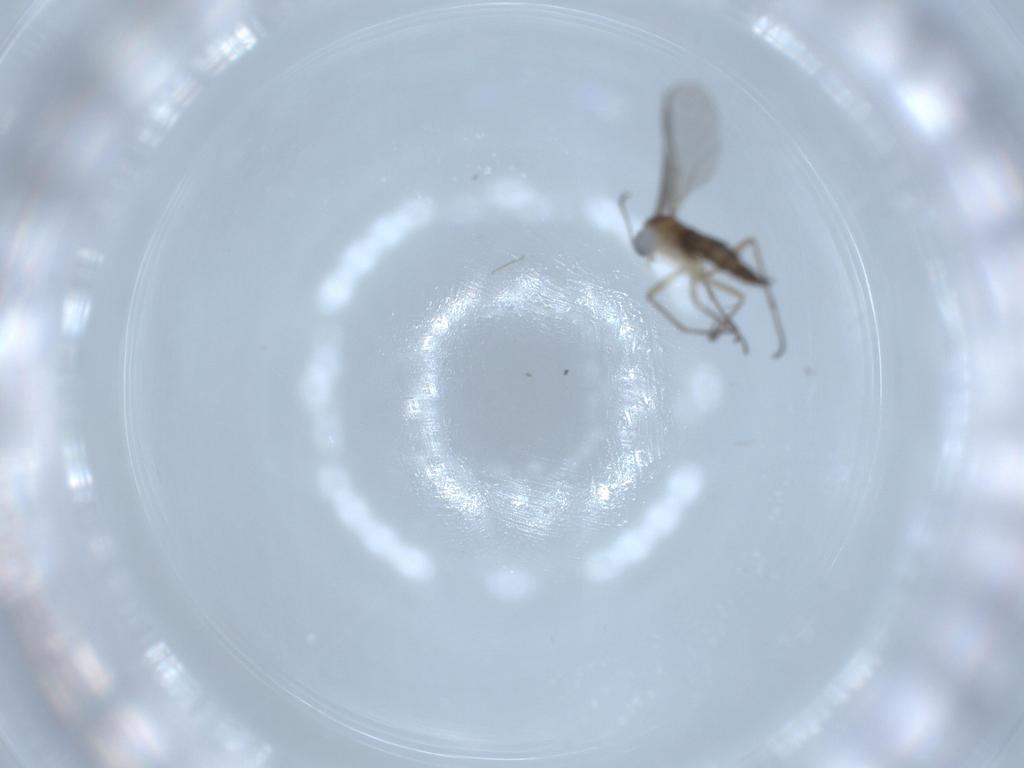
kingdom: Animalia
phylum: Arthropoda
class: Insecta
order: Diptera
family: Sciaridae
